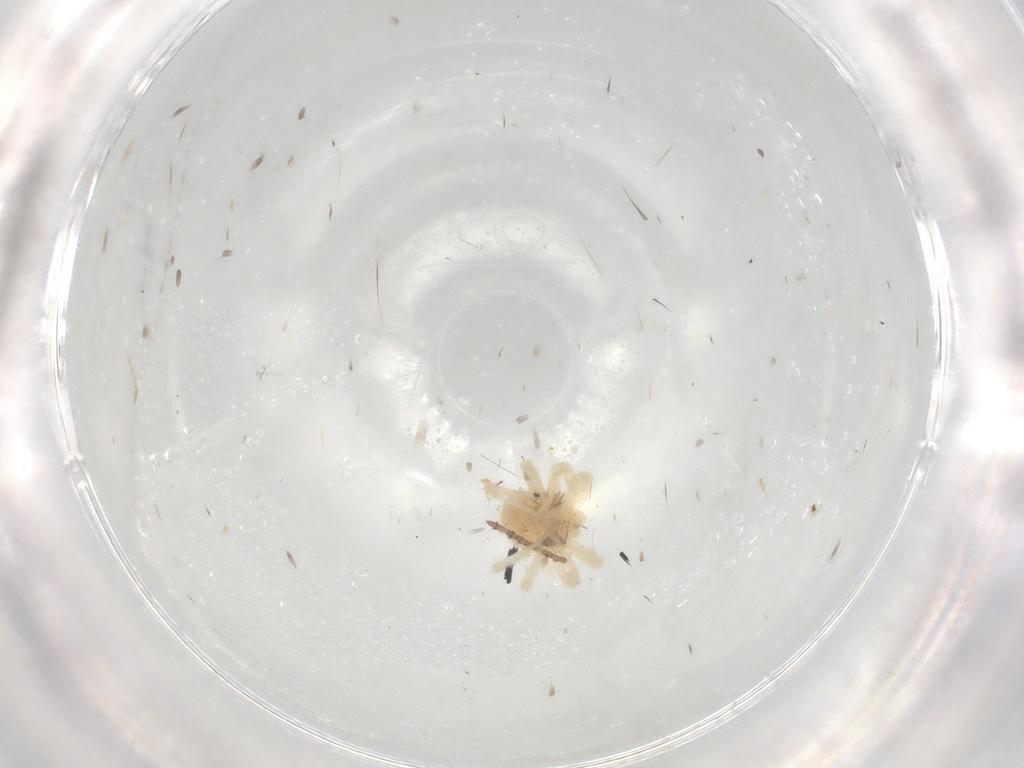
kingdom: Animalia
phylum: Arthropoda
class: Arachnida
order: Trombidiformes
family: Anystidae
